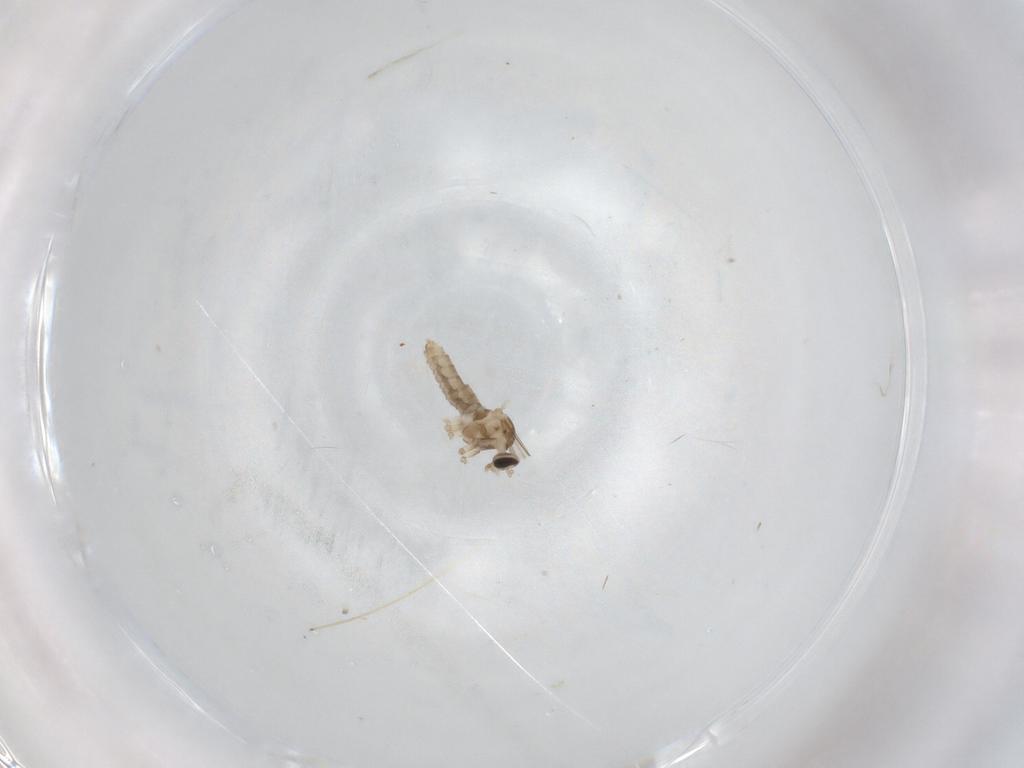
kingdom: Animalia
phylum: Arthropoda
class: Insecta
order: Diptera
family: Cecidomyiidae
